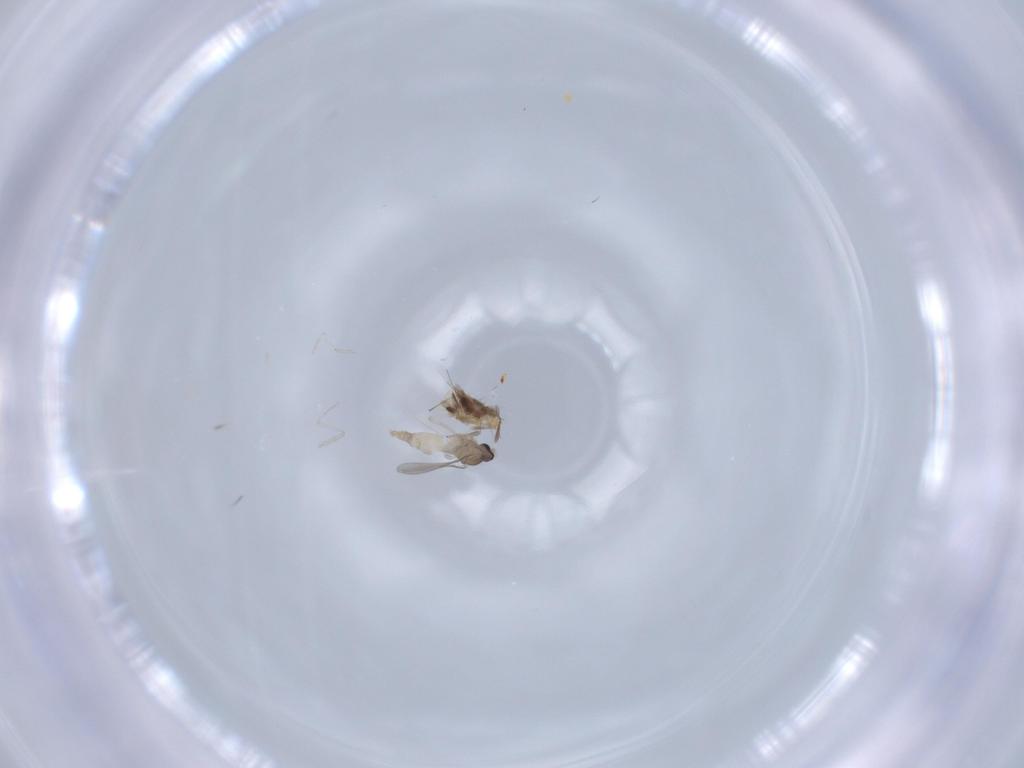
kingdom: Animalia
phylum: Arthropoda
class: Insecta
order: Diptera
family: Cecidomyiidae
